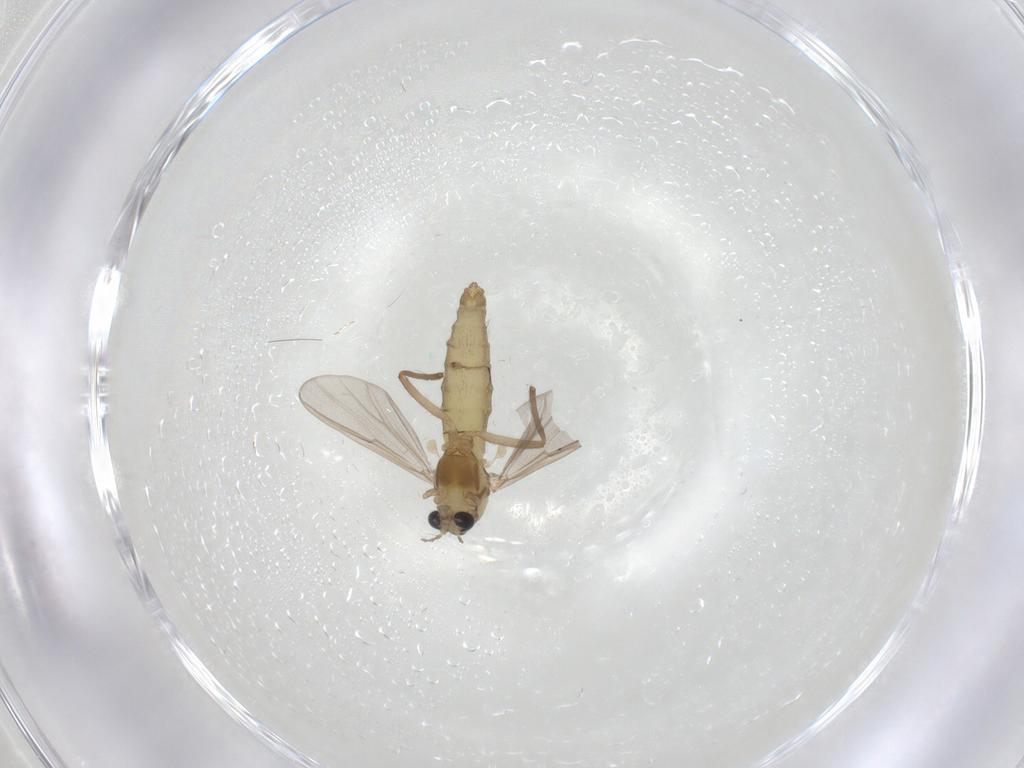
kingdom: Animalia
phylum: Arthropoda
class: Insecta
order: Diptera
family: Chironomidae
